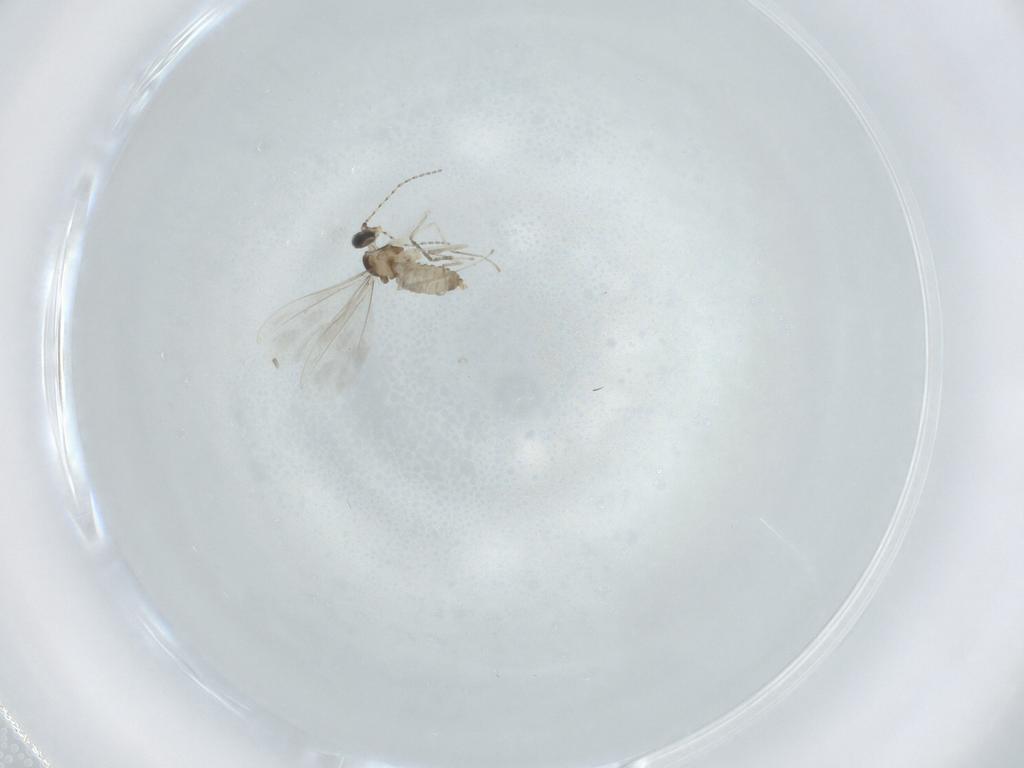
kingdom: Animalia
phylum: Arthropoda
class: Insecta
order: Diptera
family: Cecidomyiidae
